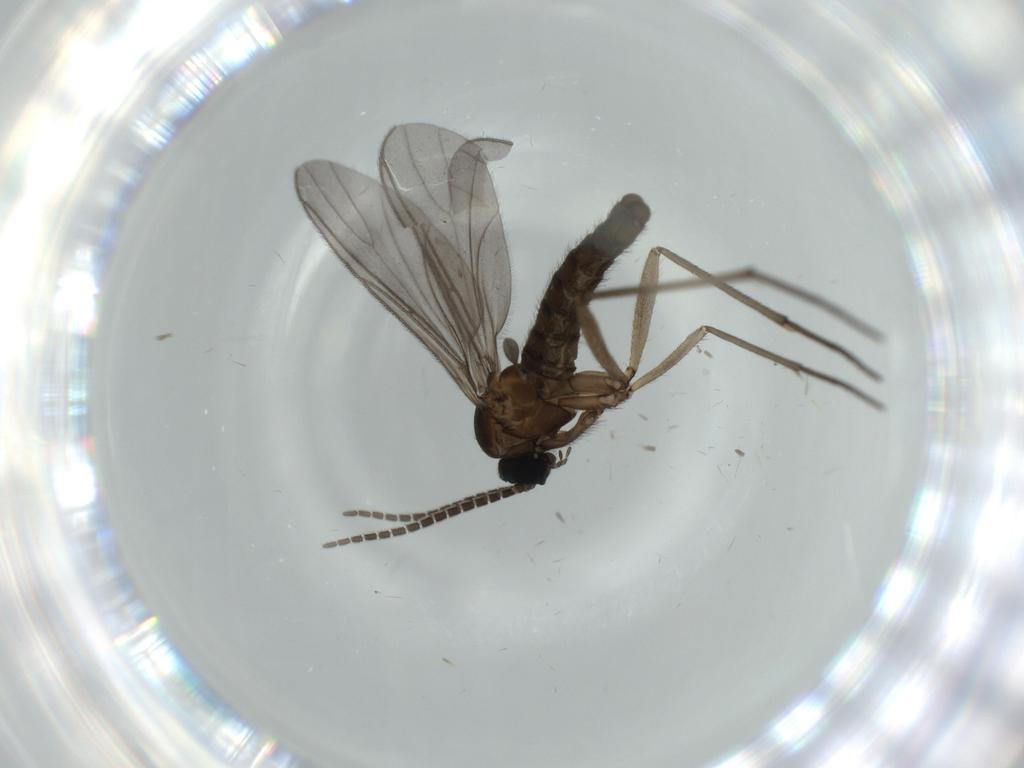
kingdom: Animalia
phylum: Arthropoda
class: Insecta
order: Diptera
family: Sciaridae
